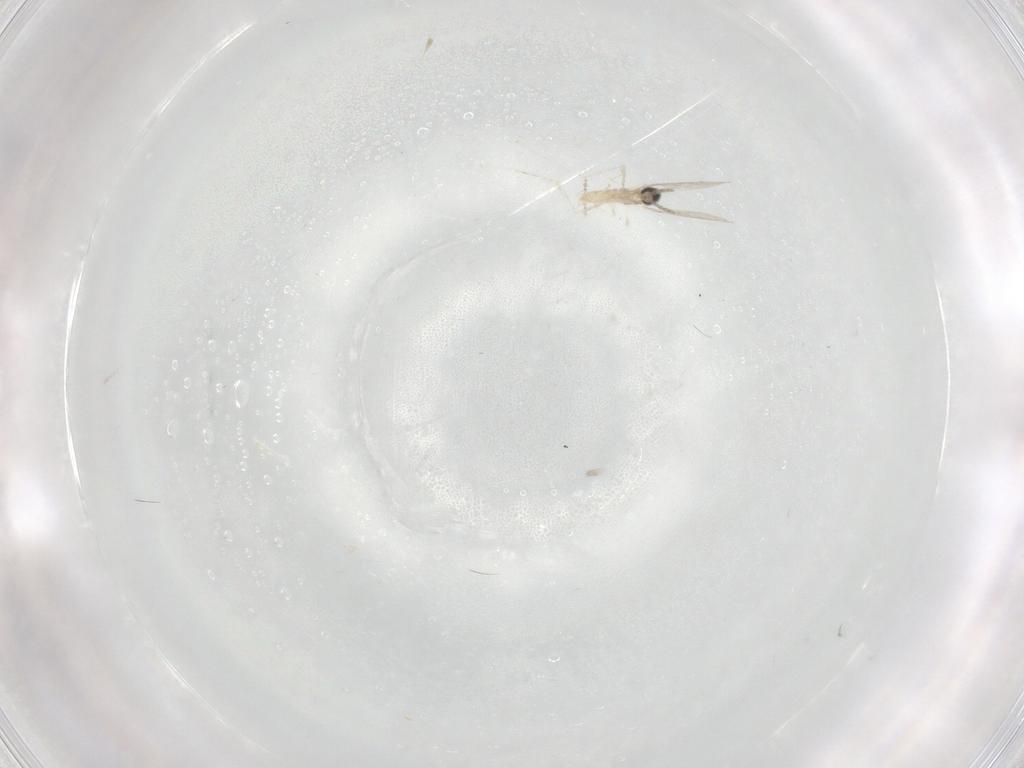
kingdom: Animalia
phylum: Arthropoda
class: Insecta
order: Diptera
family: Cecidomyiidae
